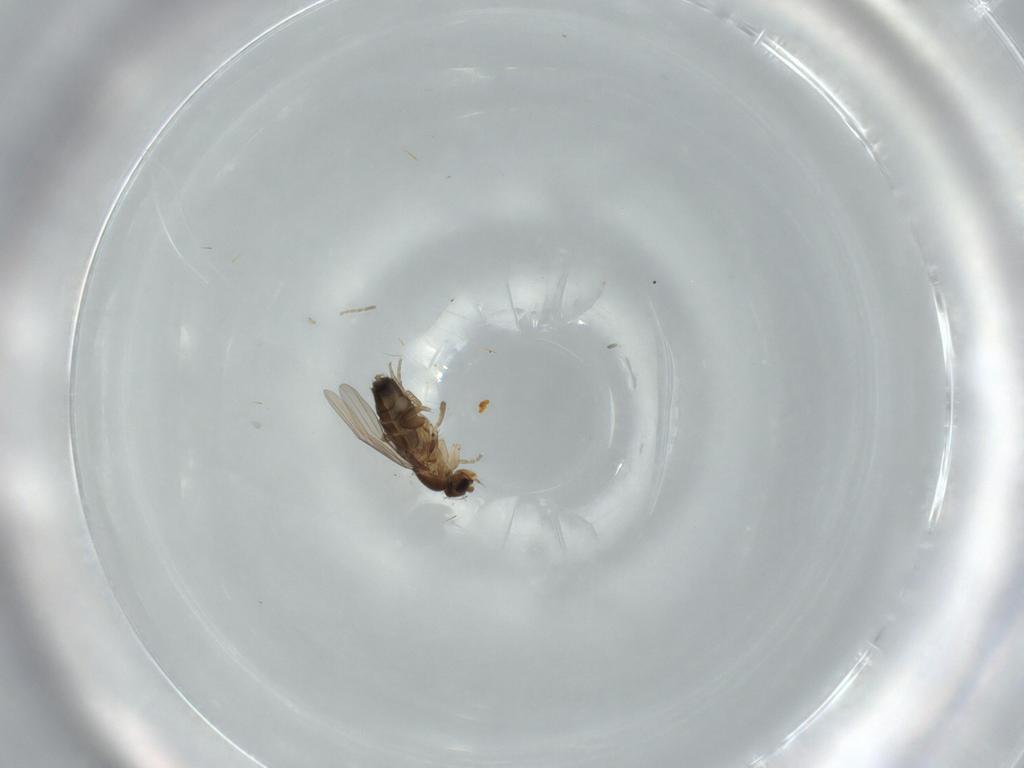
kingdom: Animalia
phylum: Arthropoda
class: Insecta
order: Diptera
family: Phoridae
